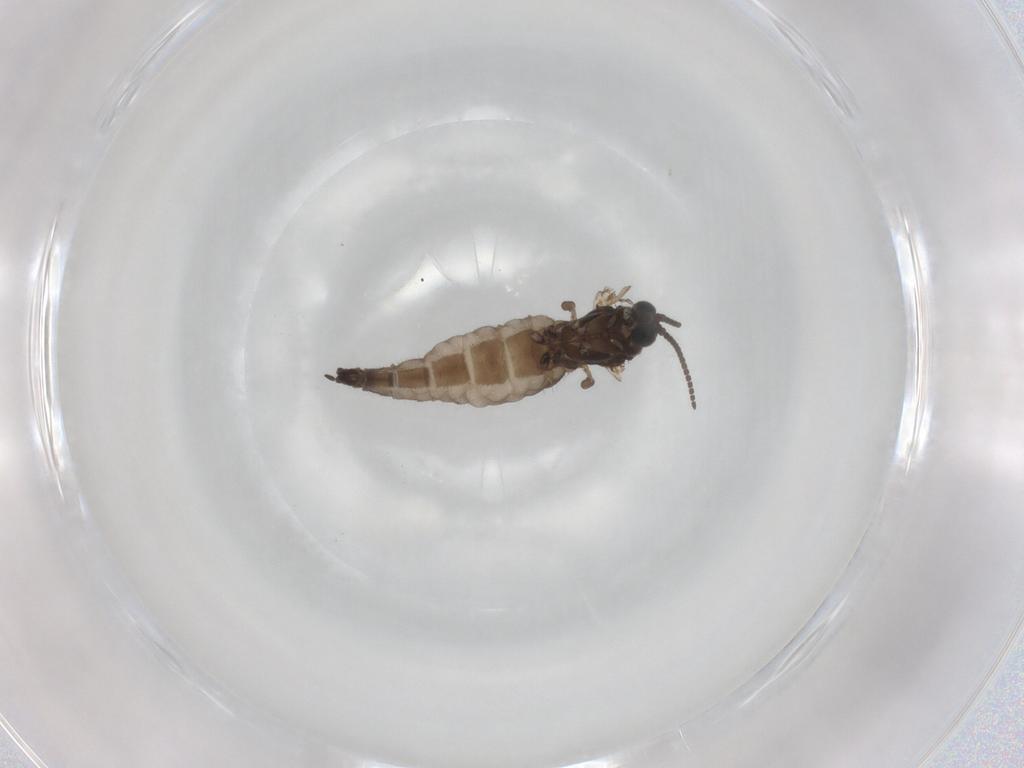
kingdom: Animalia
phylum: Arthropoda
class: Insecta
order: Diptera
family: Sciaridae
